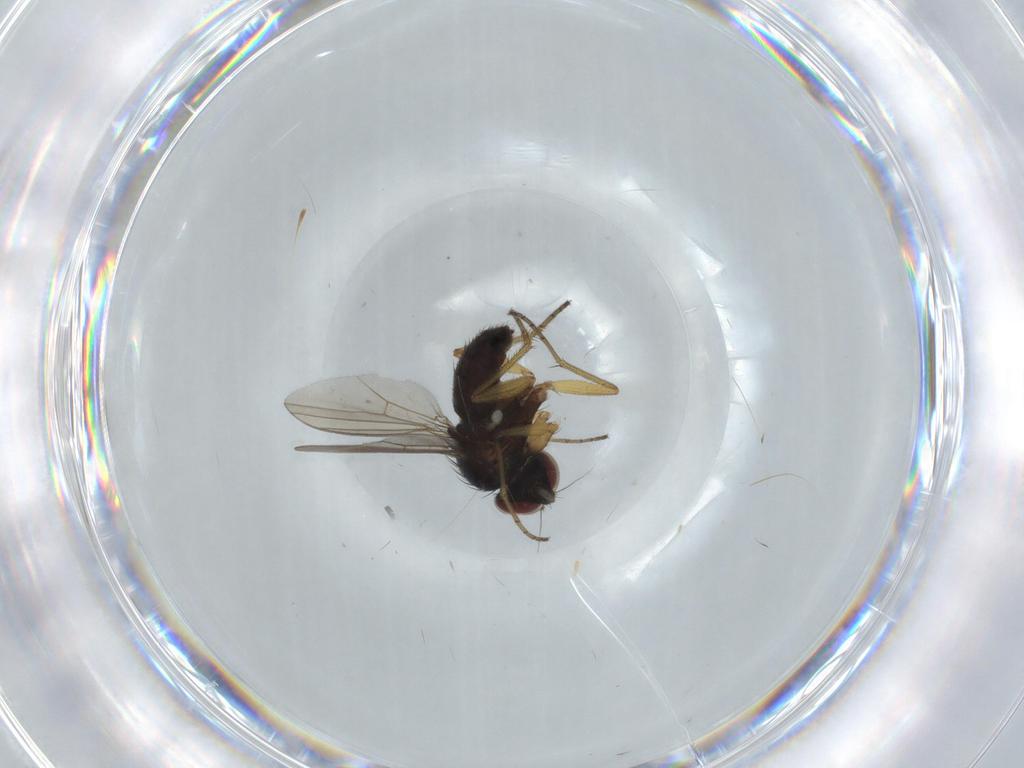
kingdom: Animalia
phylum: Arthropoda
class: Insecta
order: Diptera
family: Dolichopodidae
